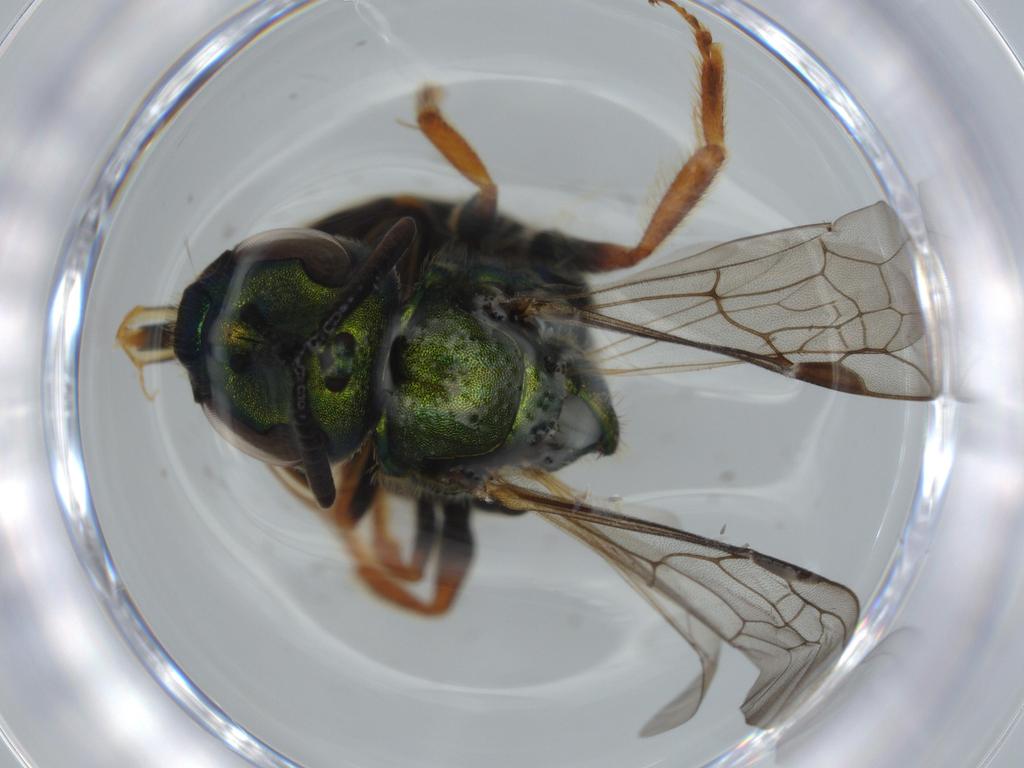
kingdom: Animalia
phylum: Arthropoda
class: Insecta
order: Hymenoptera
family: Halictidae
